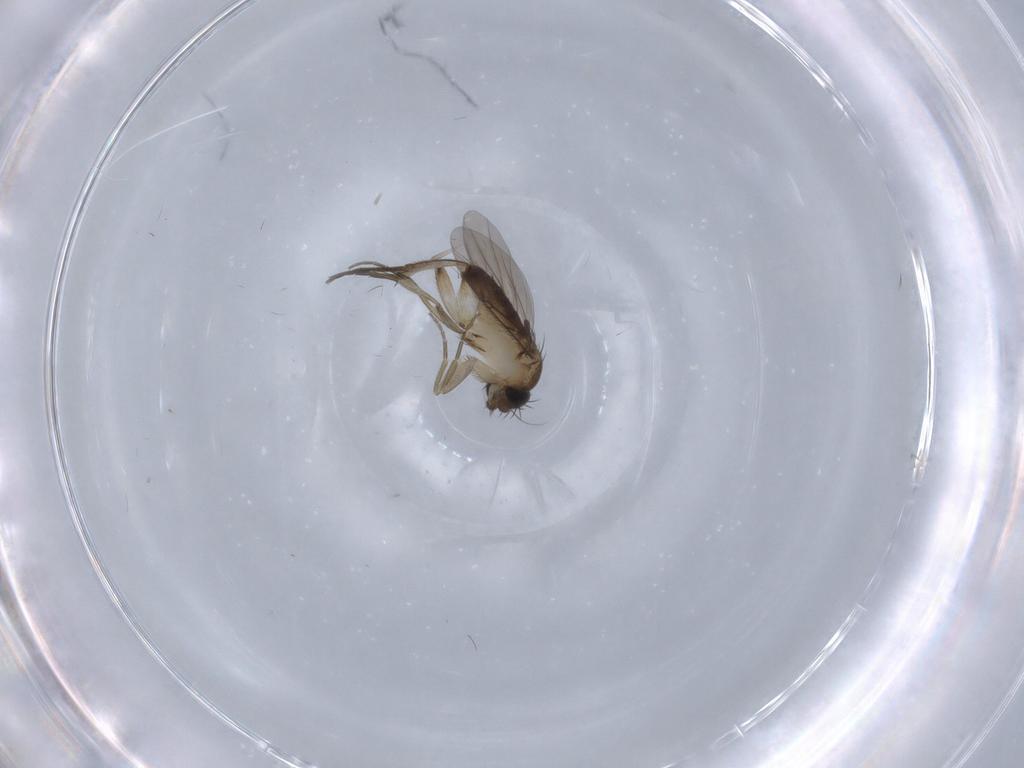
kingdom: Animalia
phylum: Arthropoda
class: Insecta
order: Diptera
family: Phoridae
